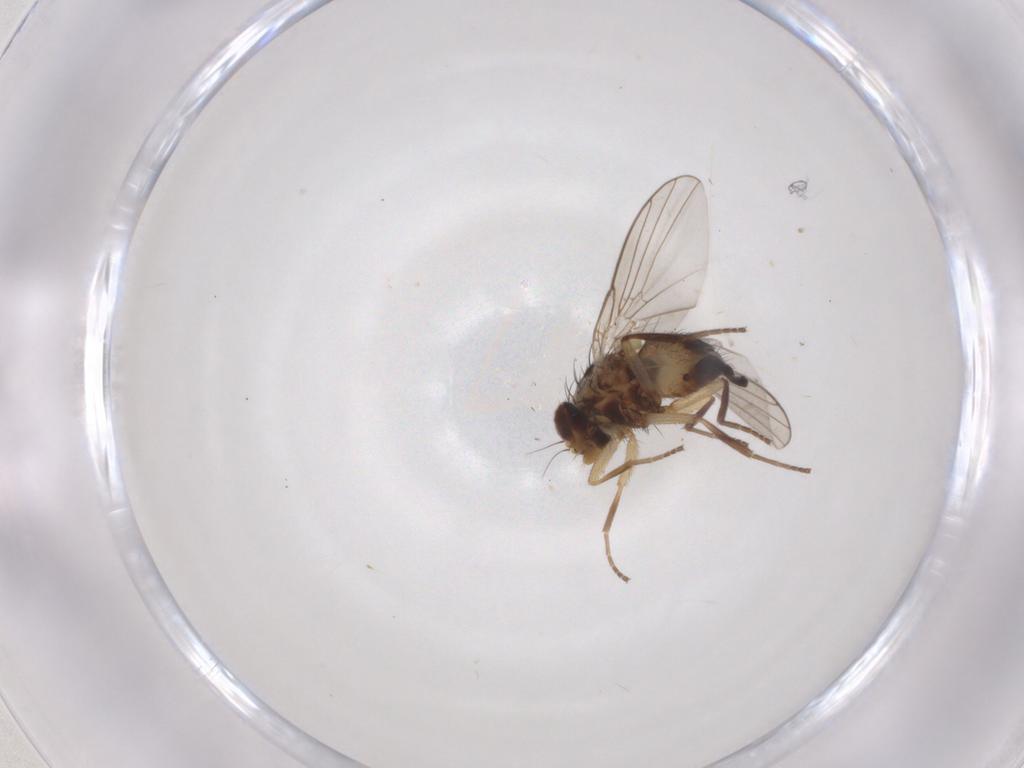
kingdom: Animalia
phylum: Arthropoda
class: Insecta
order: Diptera
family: Agromyzidae
